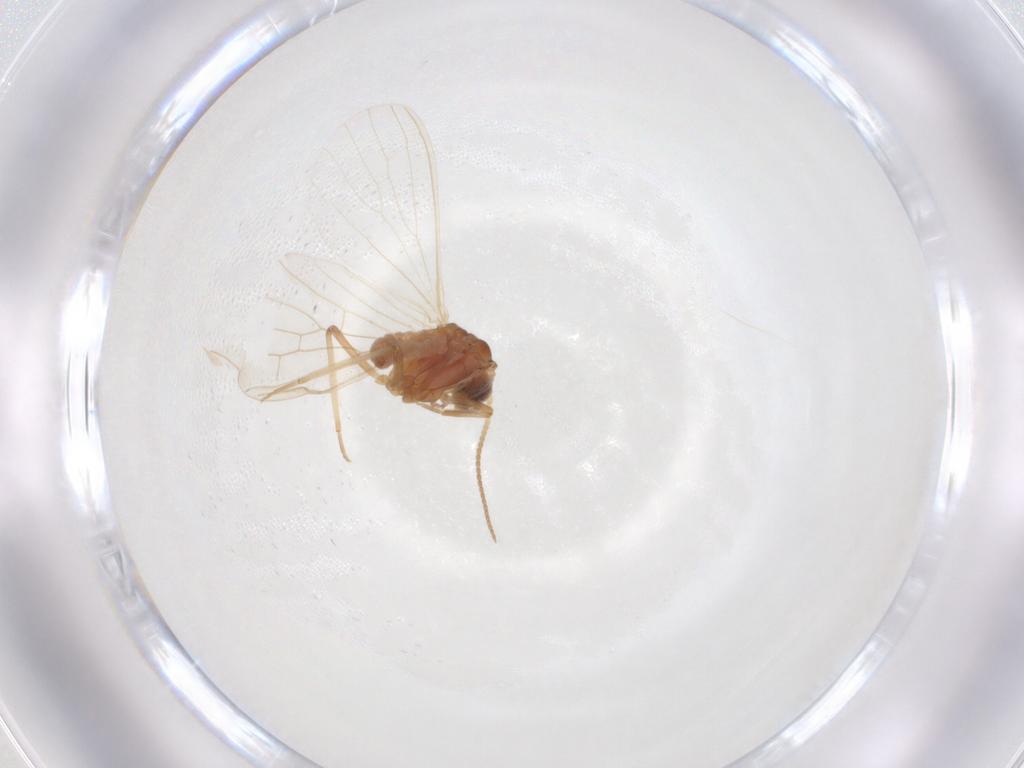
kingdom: Animalia
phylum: Arthropoda
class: Insecta
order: Neuroptera
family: Coniopterygidae
